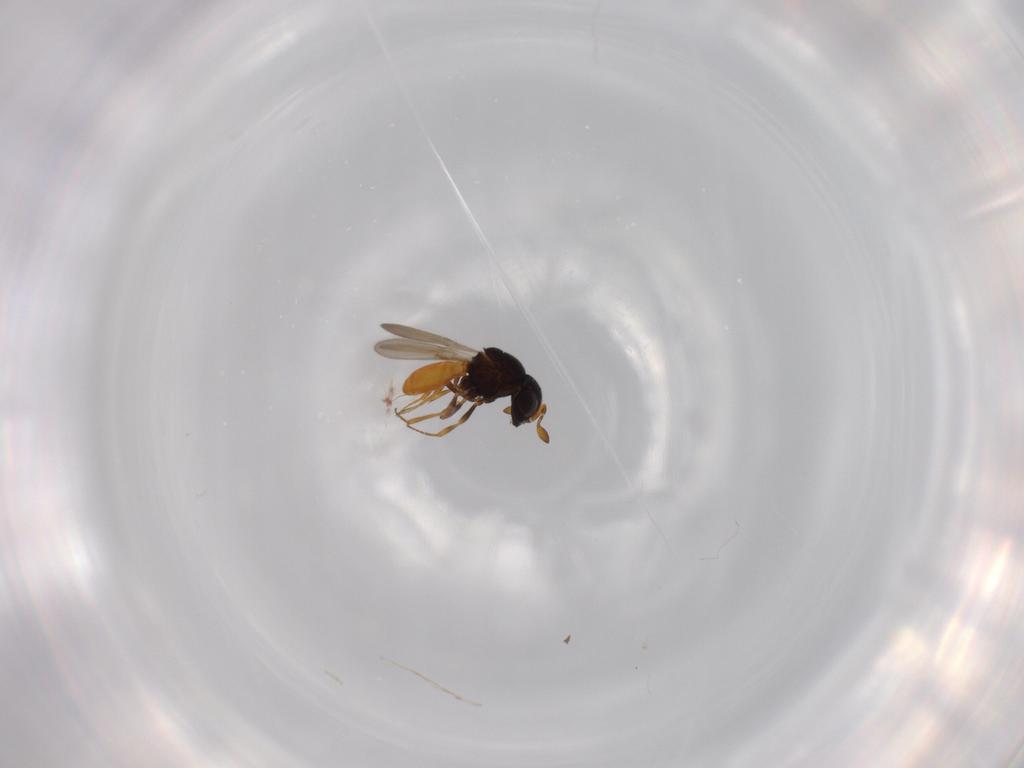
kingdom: Animalia
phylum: Arthropoda
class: Insecta
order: Hymenoptera
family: Scelionidae
